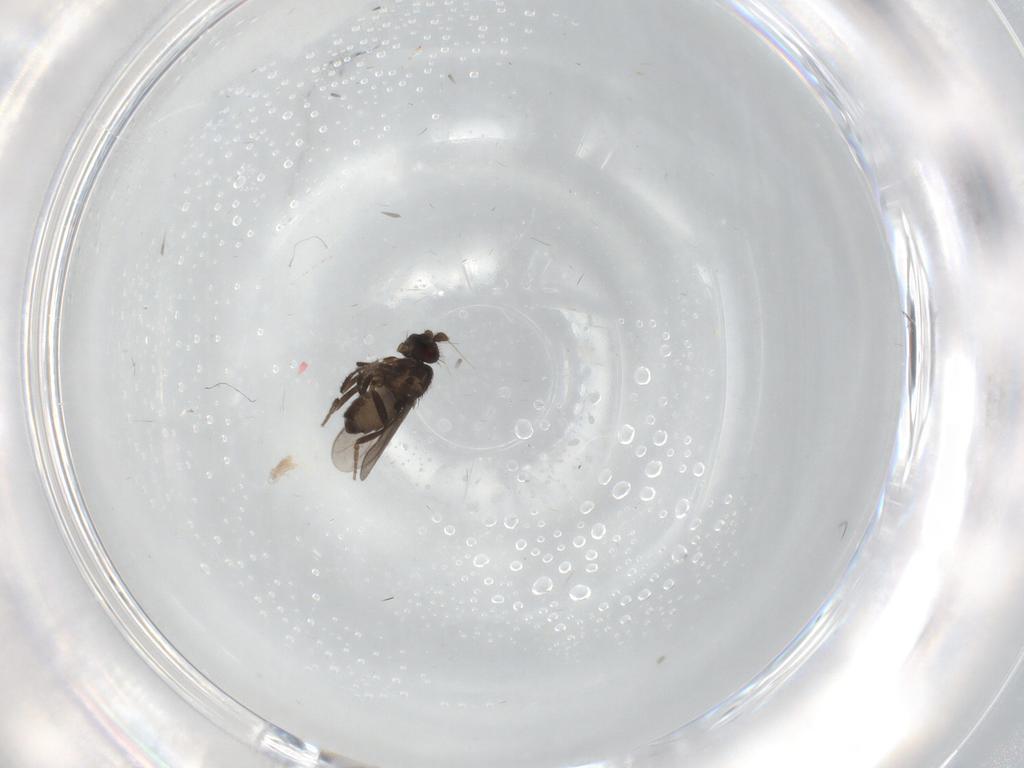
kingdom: Animalia
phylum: Arthropoda
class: Insecta
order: Diptera
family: Sphaeroceridae
